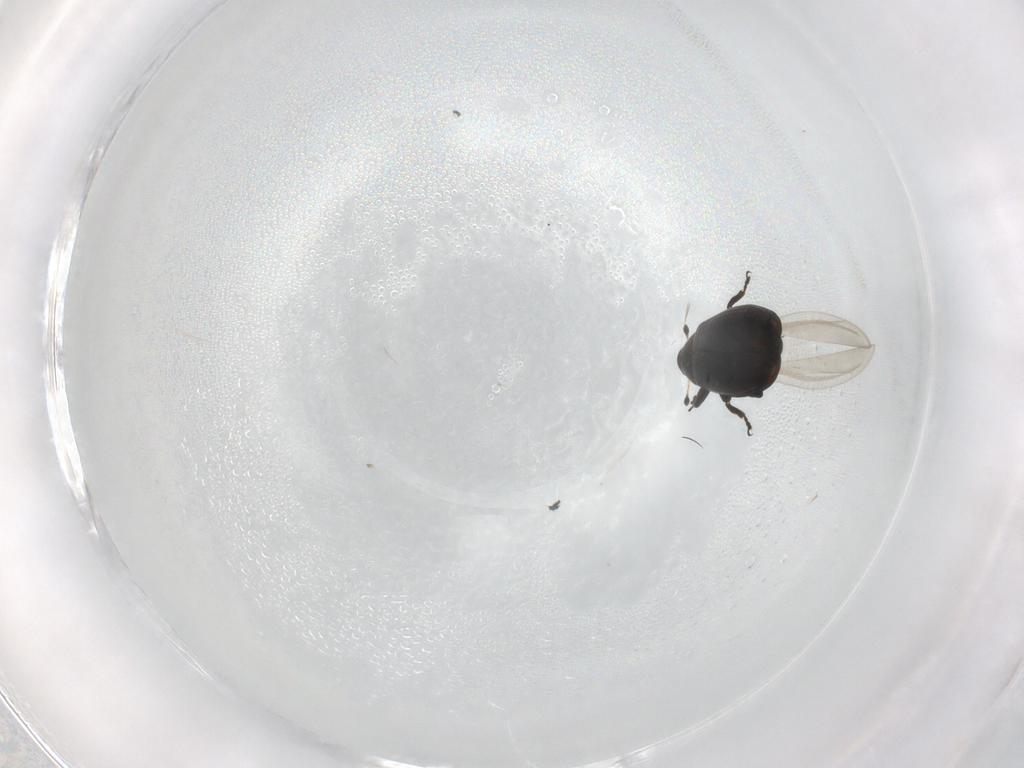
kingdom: Animalia
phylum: Arthropoda
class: Insecta
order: Coleoptera
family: Curculionidae
